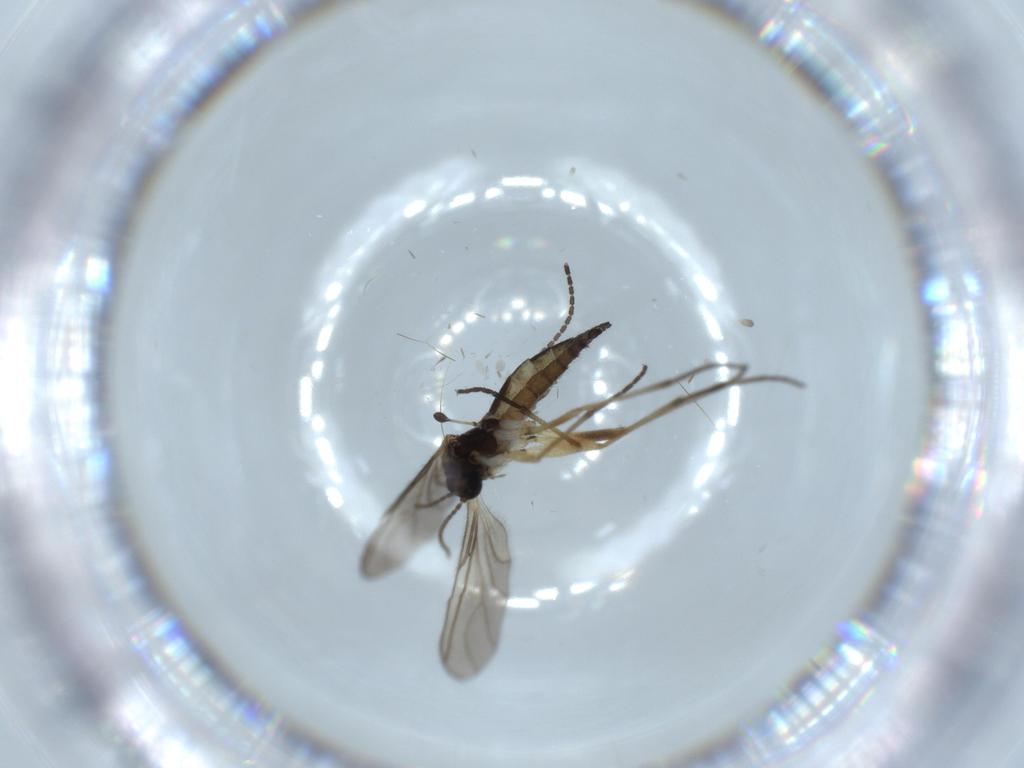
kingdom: Animalia
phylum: Arthropoda
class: Insecta
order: Diptera
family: Sciaridae
